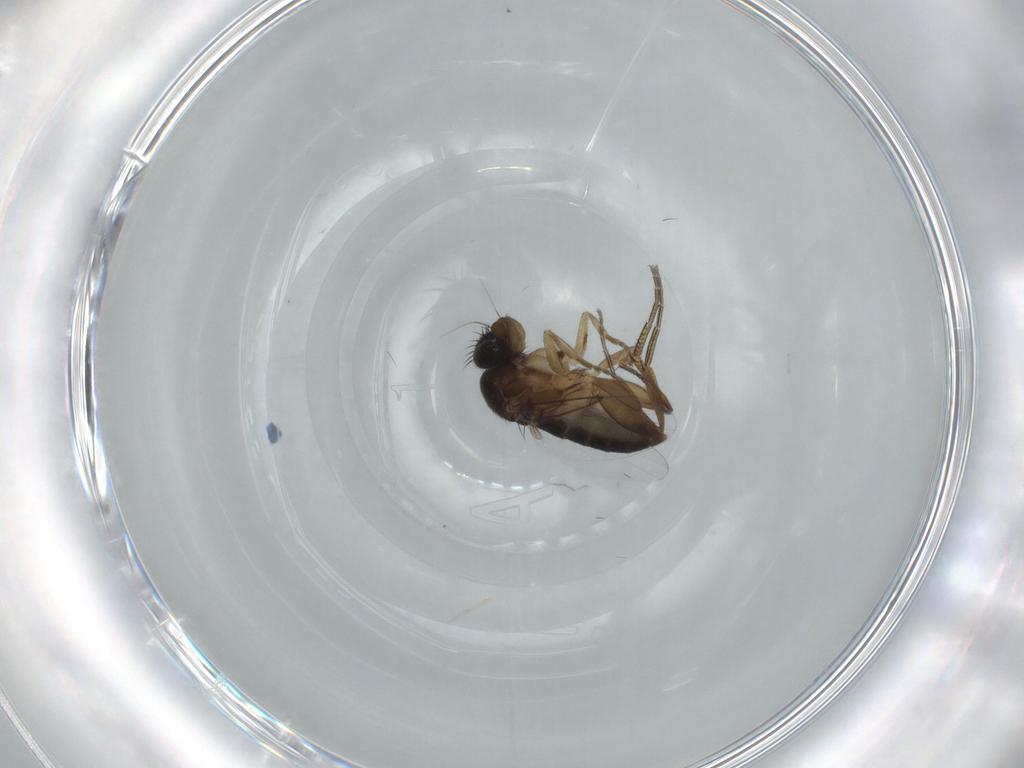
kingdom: Animalia
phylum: Arthropoda
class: Insecta
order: Diptera
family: Phoridae
